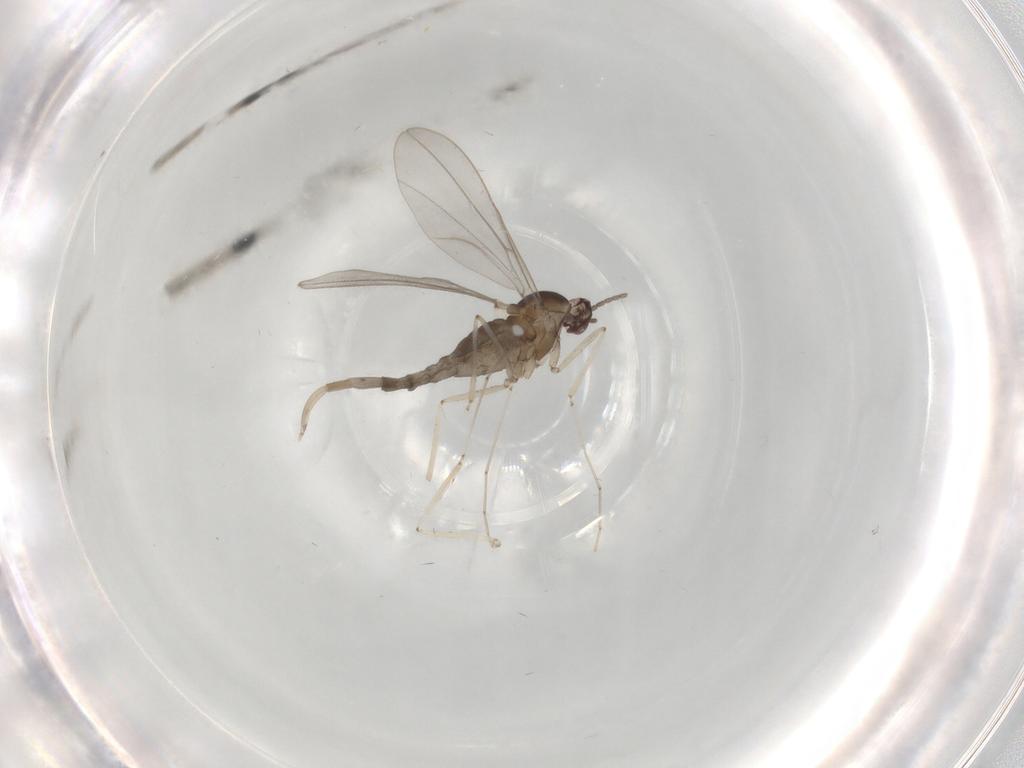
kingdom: Animalia
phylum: Arthropoda
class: Insecta
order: Diptera
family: Cecidomyiidae
